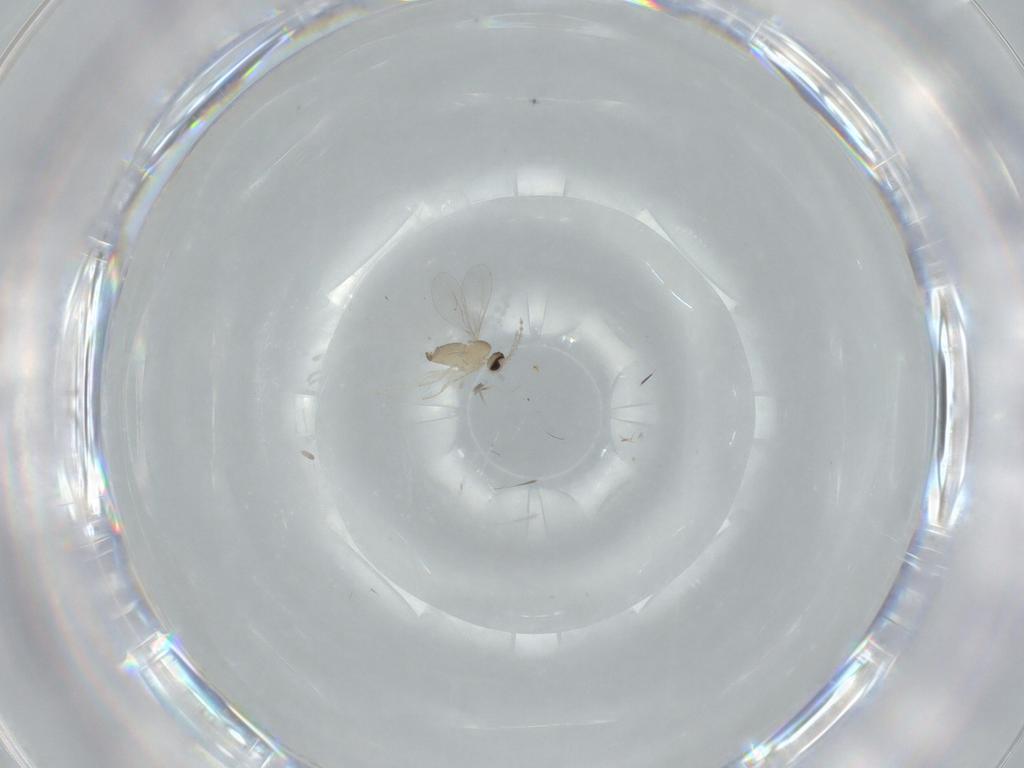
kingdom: Animalia
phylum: Arthropoda
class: Insecta
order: Diptera
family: Cecidomyiidae
